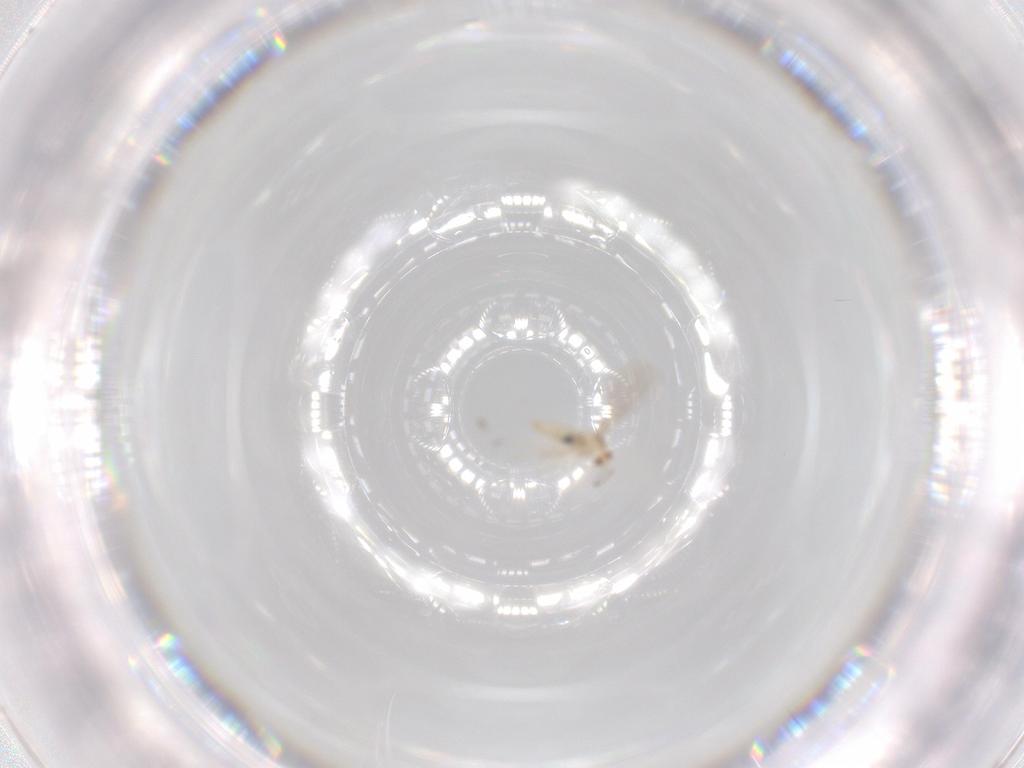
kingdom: Animalia
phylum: Arthropoda
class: Insecta
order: Diptera
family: Cecidomyiidae
